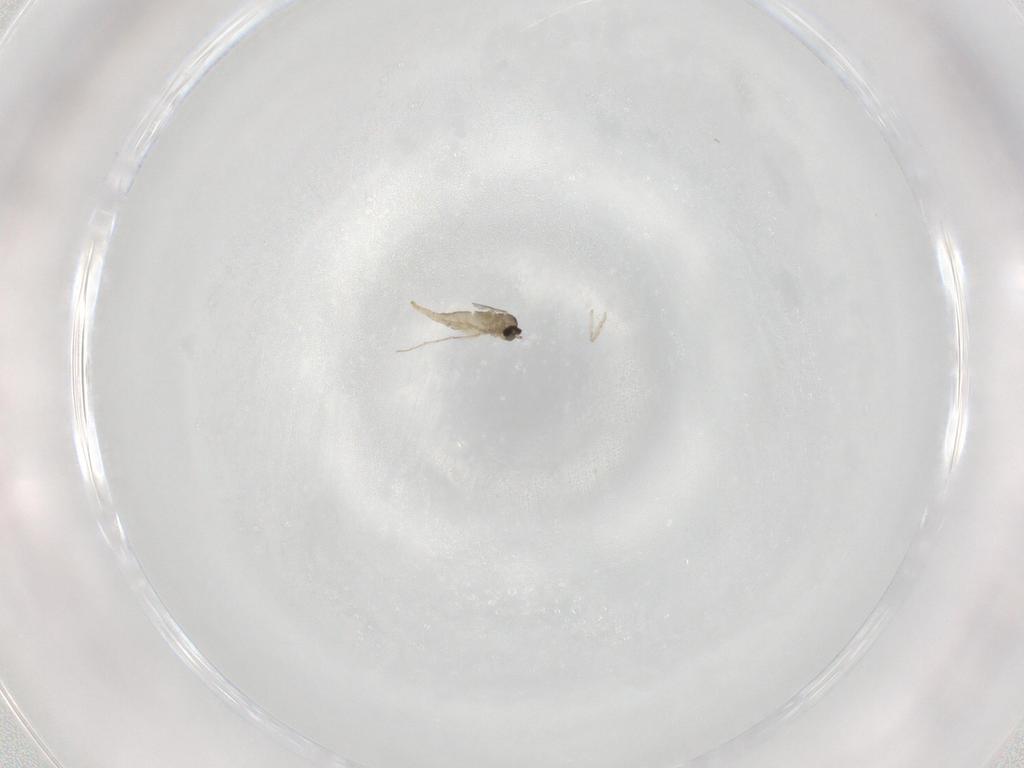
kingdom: Animalia
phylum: Arthropoda
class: Insecta
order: Diptera
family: Cecidomyiidae
